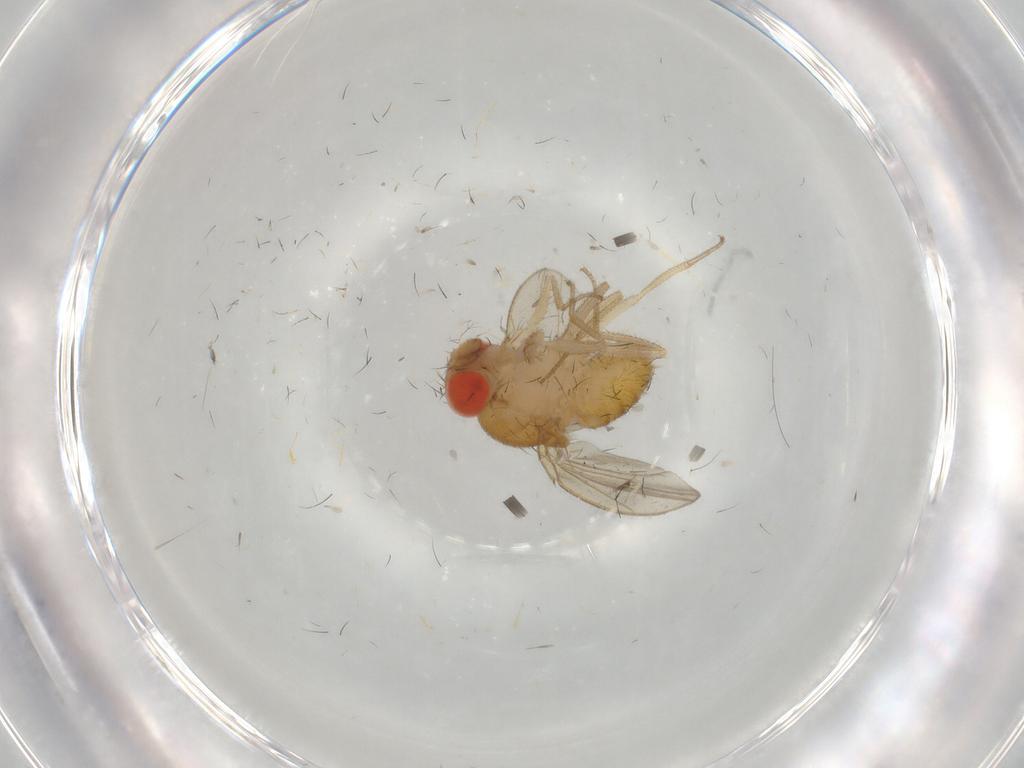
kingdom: Animalia
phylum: Arthropoda
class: Insecta
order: Diptera
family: Drosophilidae
